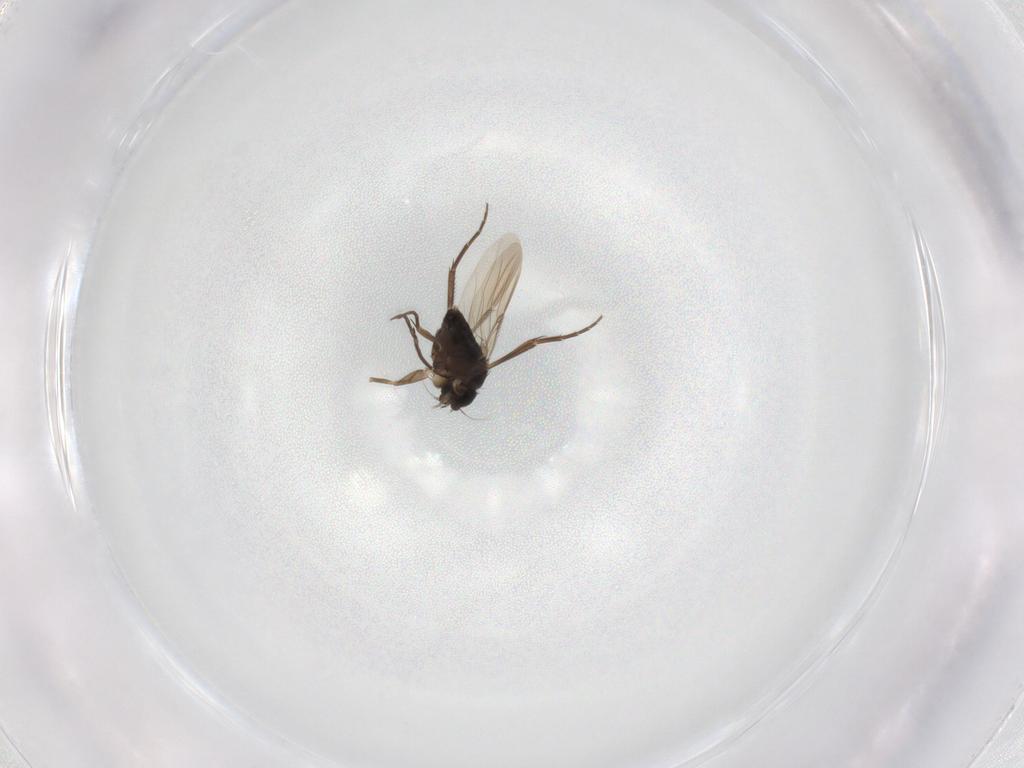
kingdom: Animalia
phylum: Arthropoda
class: Insecta
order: Diptera
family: Phoridae
